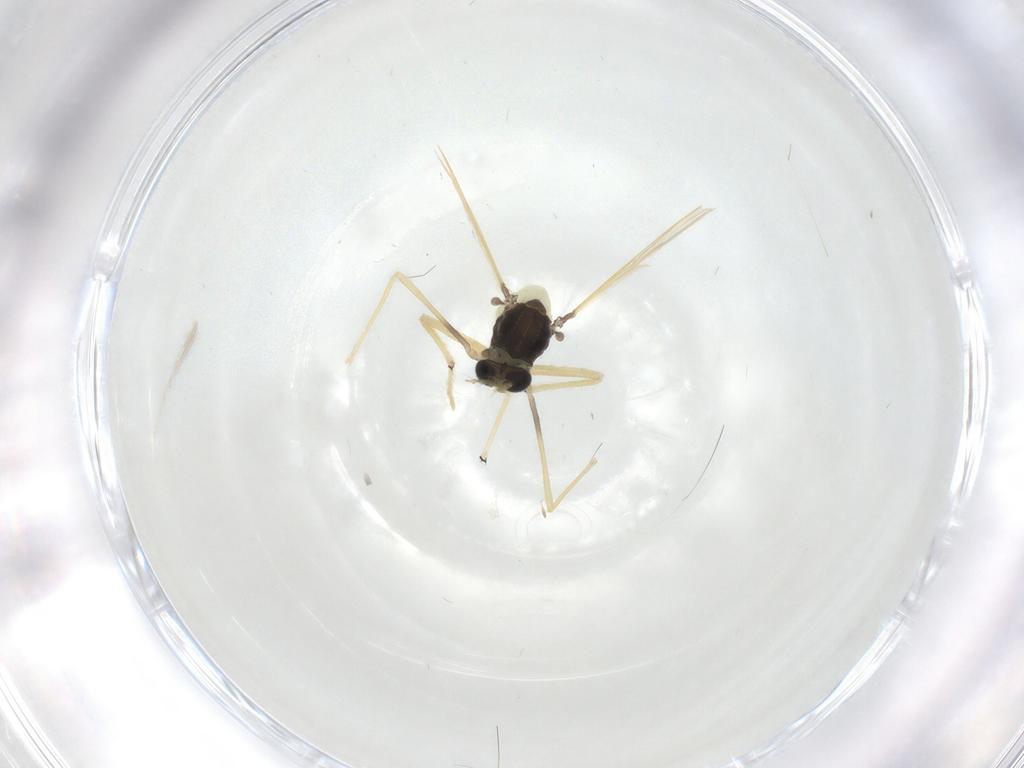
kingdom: Animalia
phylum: Arthropoda
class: Insecta
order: Diptera
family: Chironomidae
